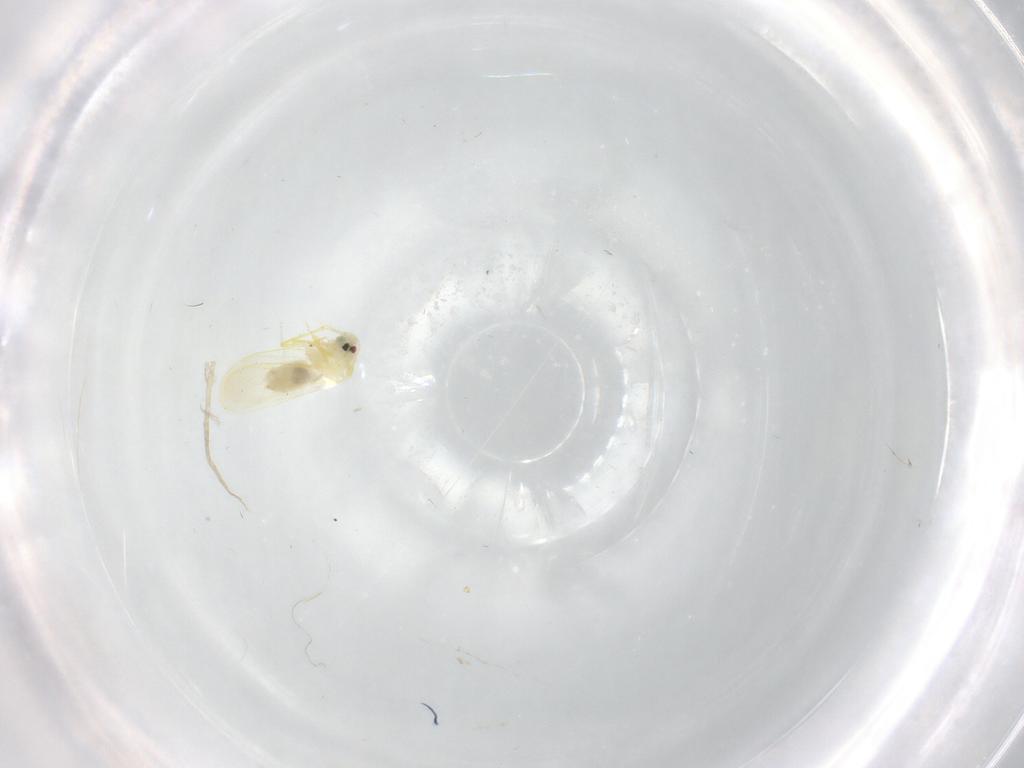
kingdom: Animalia
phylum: Arthropoda
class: Insecta
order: Hemiptera
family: Aleyrodidae
